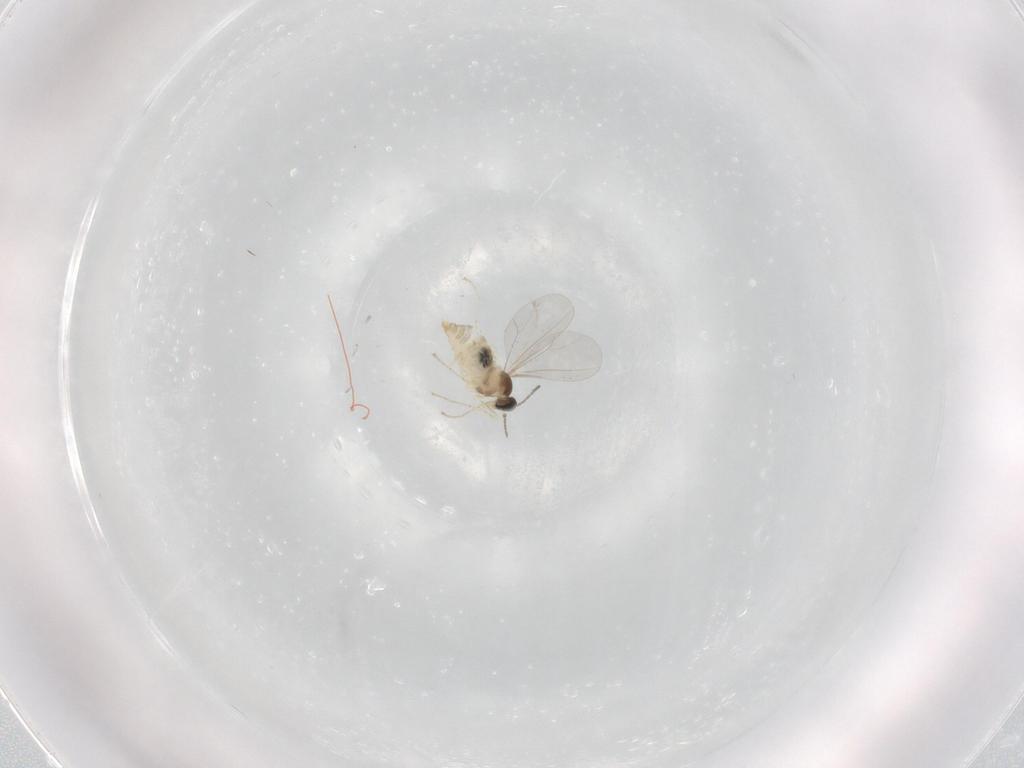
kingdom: Animalia
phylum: Arthropoda
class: Insecta
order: Diptera
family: Cecidomyiidae
